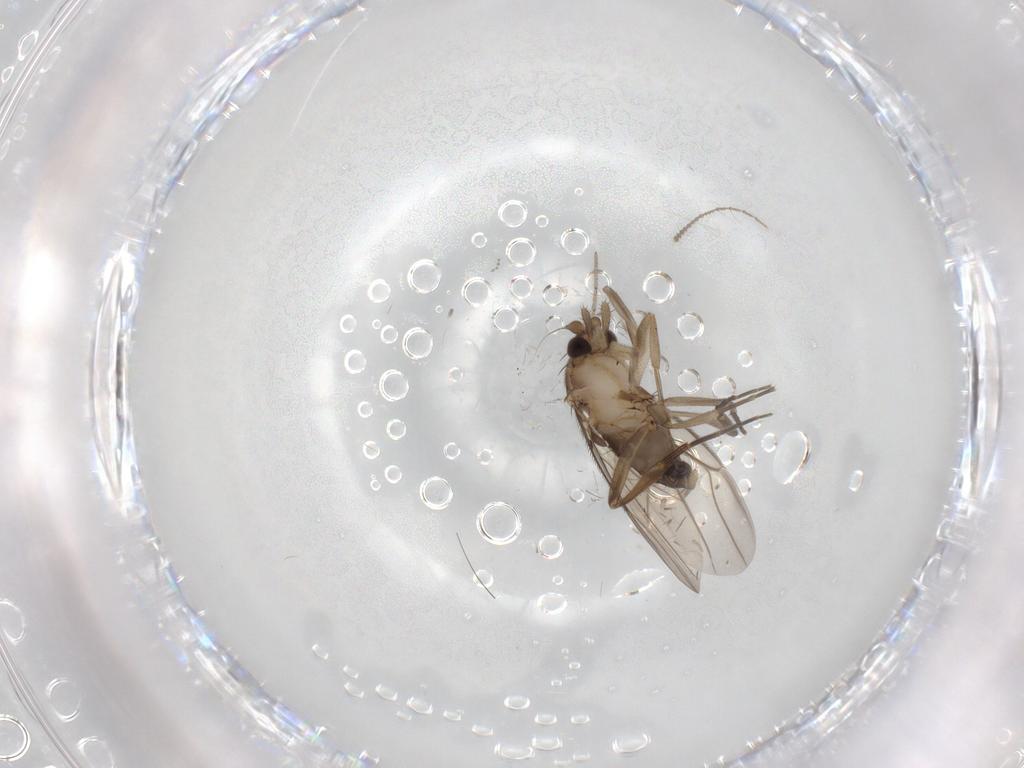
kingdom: Animalia
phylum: Arthropoda
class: Insecta
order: Diptera
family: Phoridae
